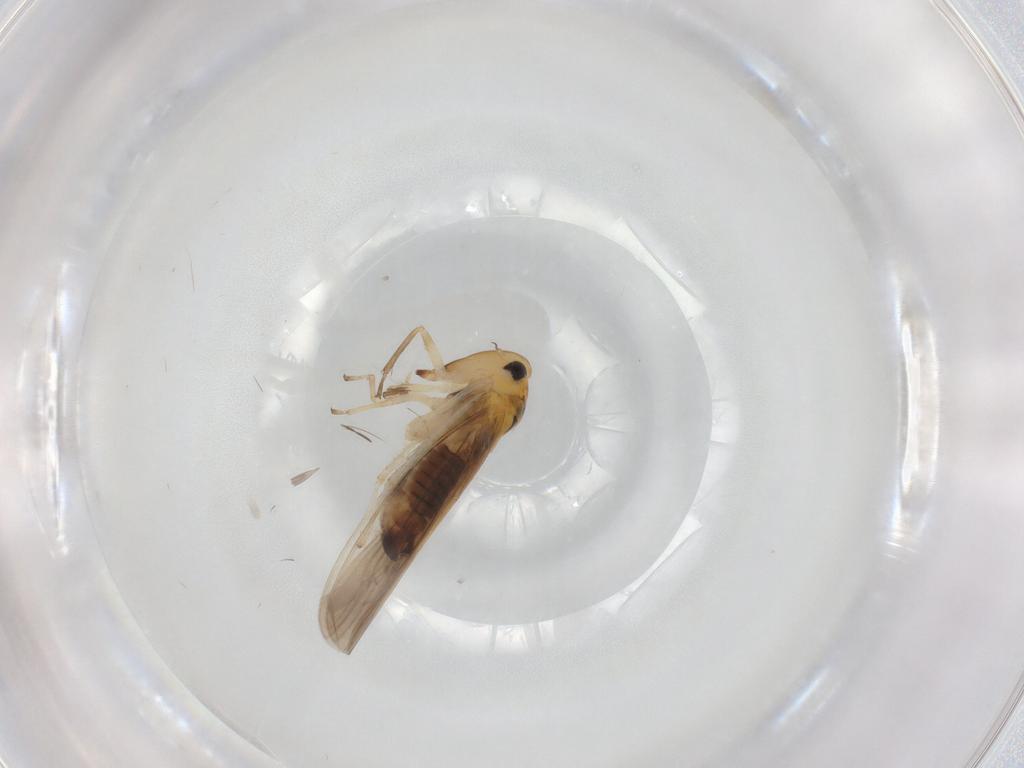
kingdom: Animalia
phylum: Arthropoda
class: Insecta
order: Hemiptera
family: Cicadellidae
